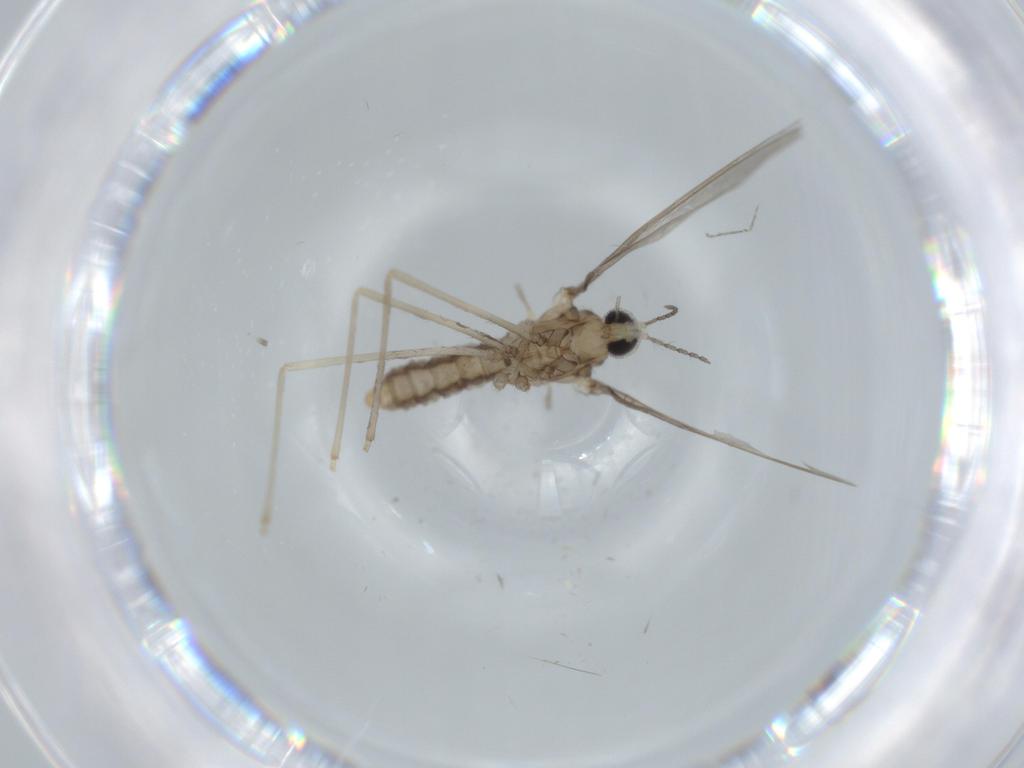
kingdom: Animalia
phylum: Arthropoda
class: Insecta
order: Diptera
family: Cecidomyiidae
